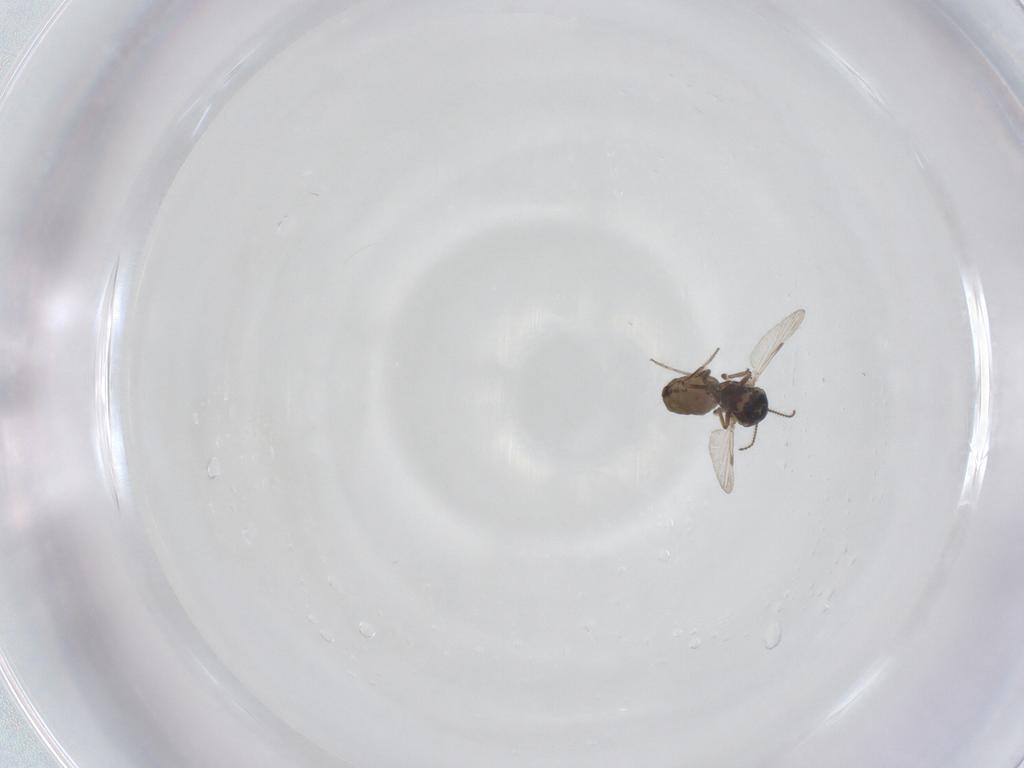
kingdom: Animalia
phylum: Arthropoda
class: Insecta
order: Diptera
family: Ceratopogonidae
